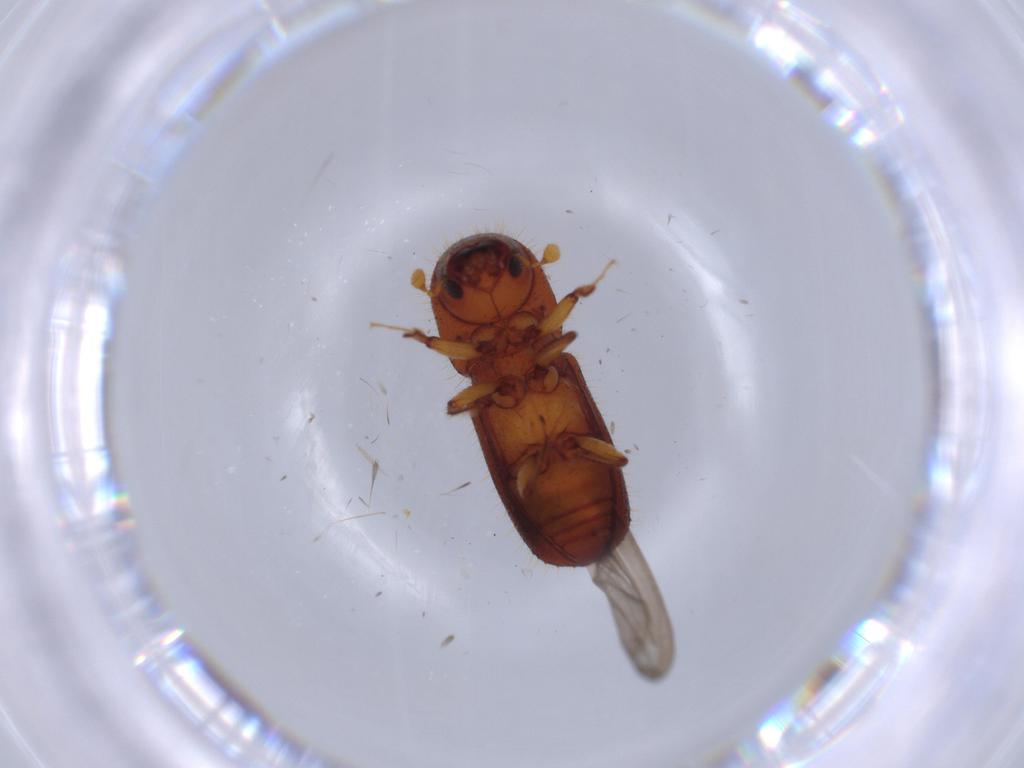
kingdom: Animalia
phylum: Arthropoda
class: Insecta
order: Coleoptera
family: Curculionidae
